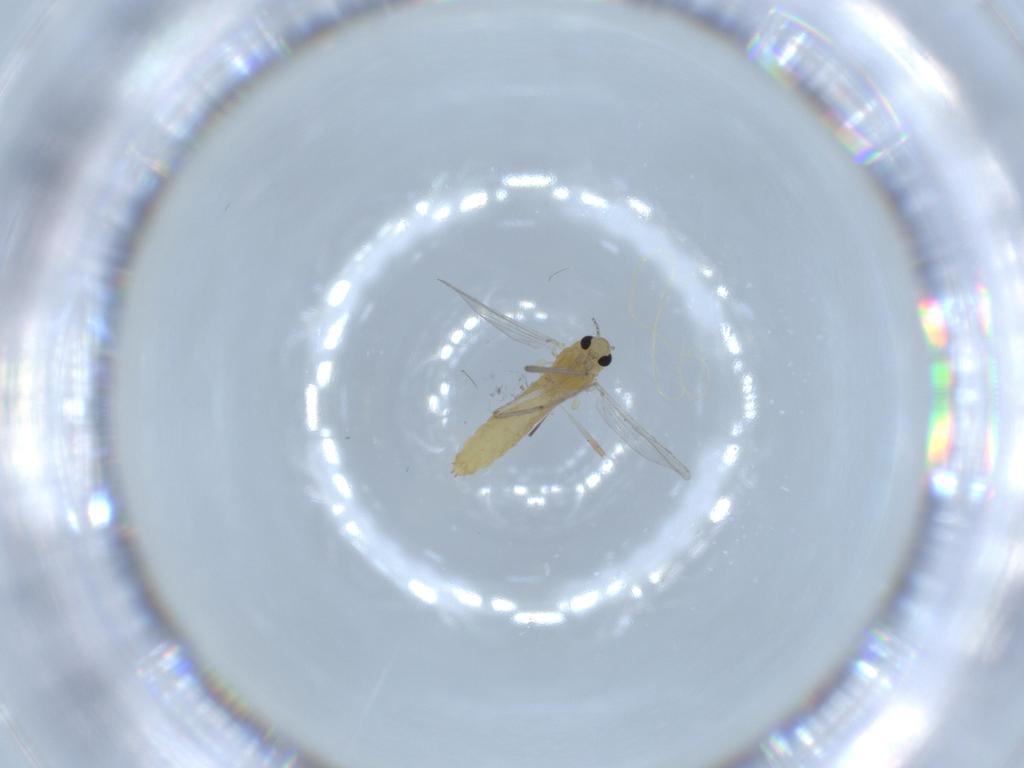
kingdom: Animalia
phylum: Arthropoda
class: Insecta
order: Diptera
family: Chironomidae
